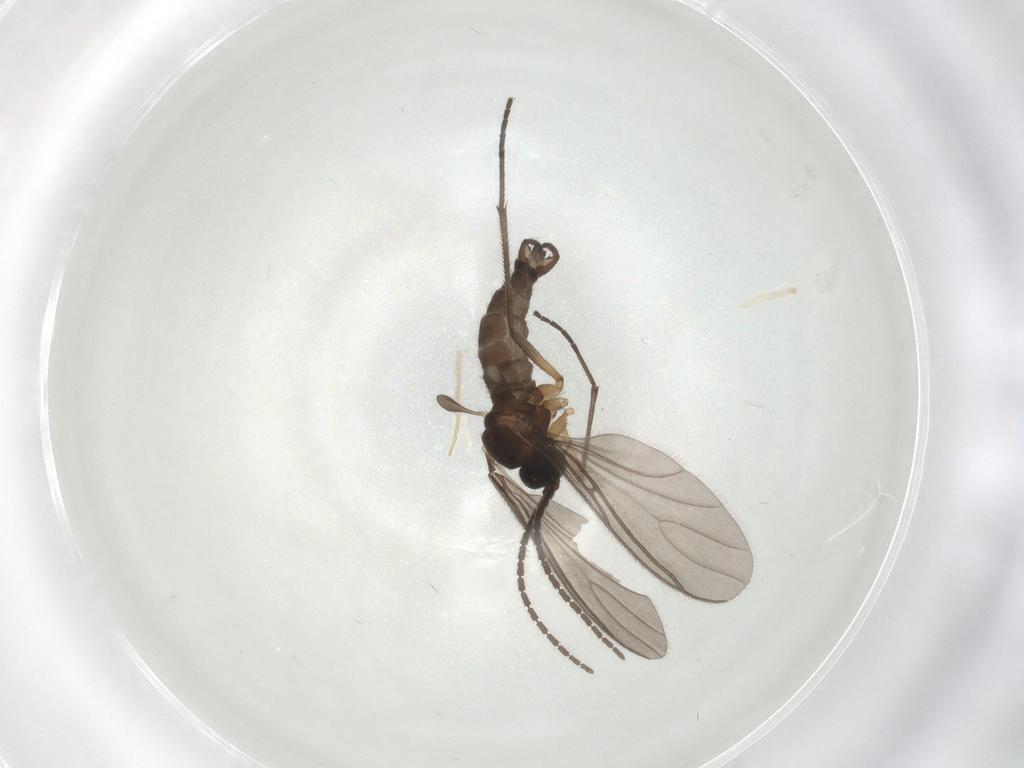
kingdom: Animalia
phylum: Arthropoda
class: Insecta
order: Diptera
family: Sciaridae
